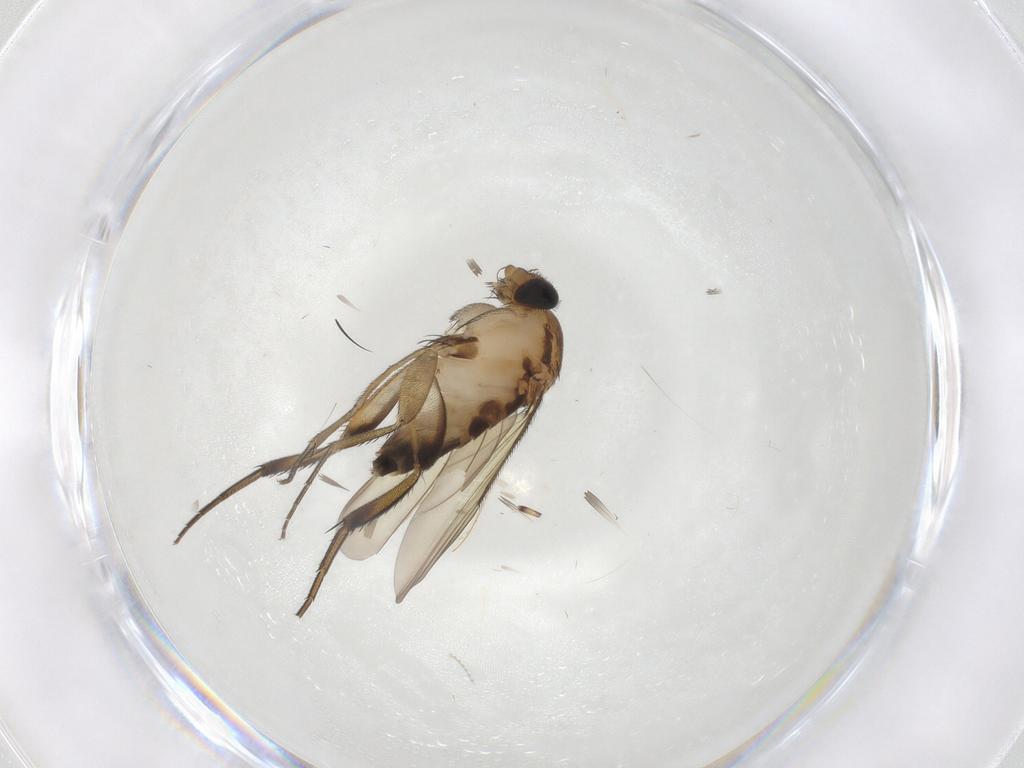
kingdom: Animalia
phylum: Arthropoda
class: Insecta
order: Diptera
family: Phoridae
